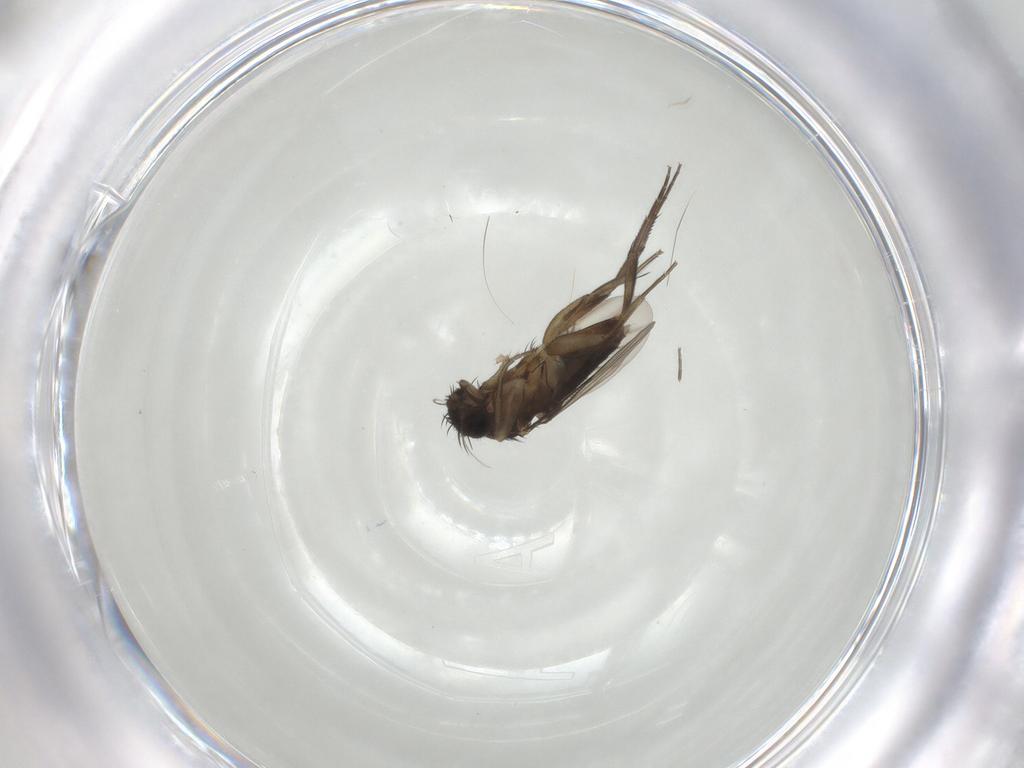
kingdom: Animalia
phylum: Arthropoda
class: Insecta
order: Diptera
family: Phoridae
